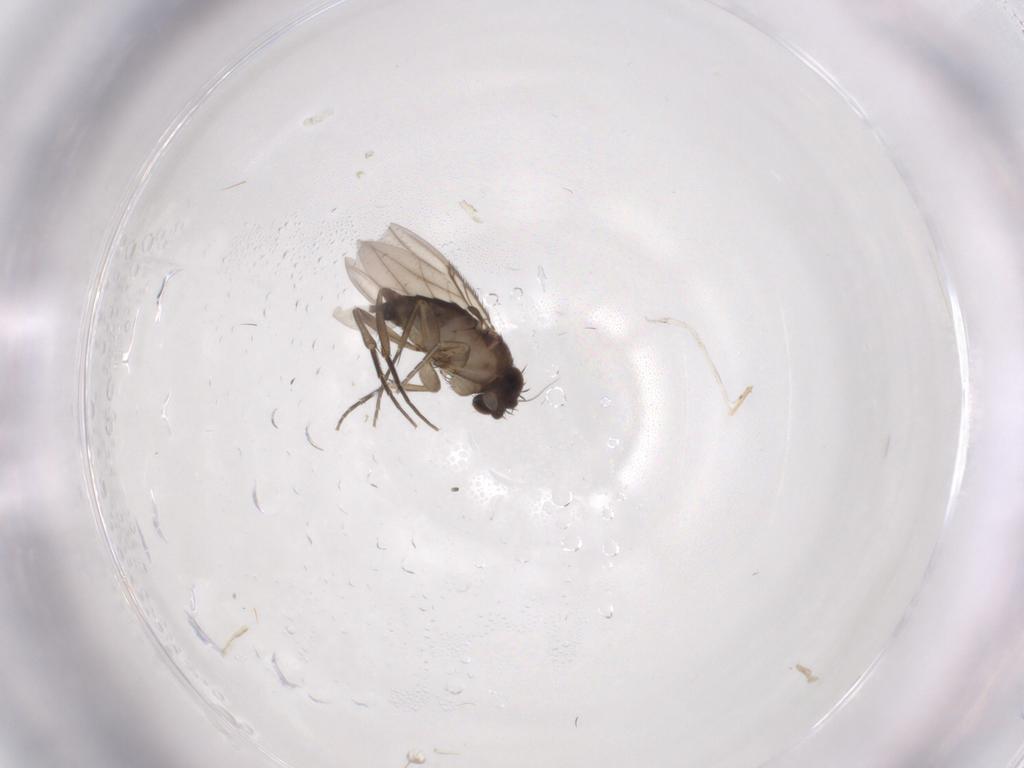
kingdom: Animalia
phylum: Arthropoda
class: Insecta
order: Diptera
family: Phoridae
